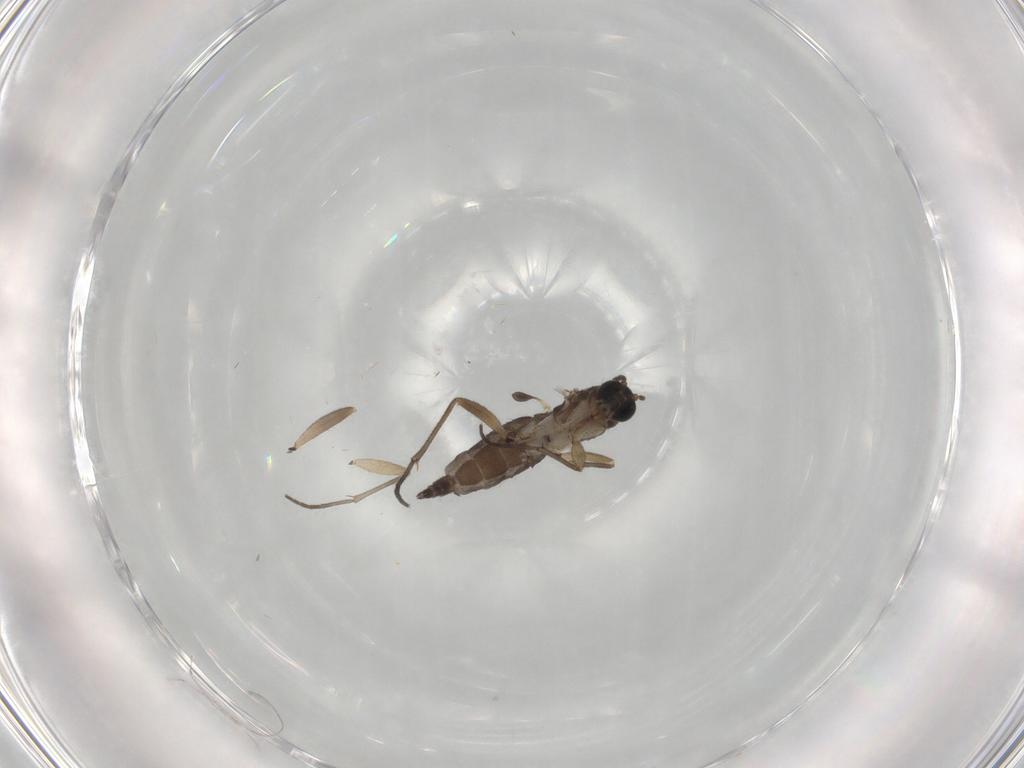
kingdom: Animalia
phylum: Arthropoda
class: Insecta
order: Diptera
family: Sciaridae
